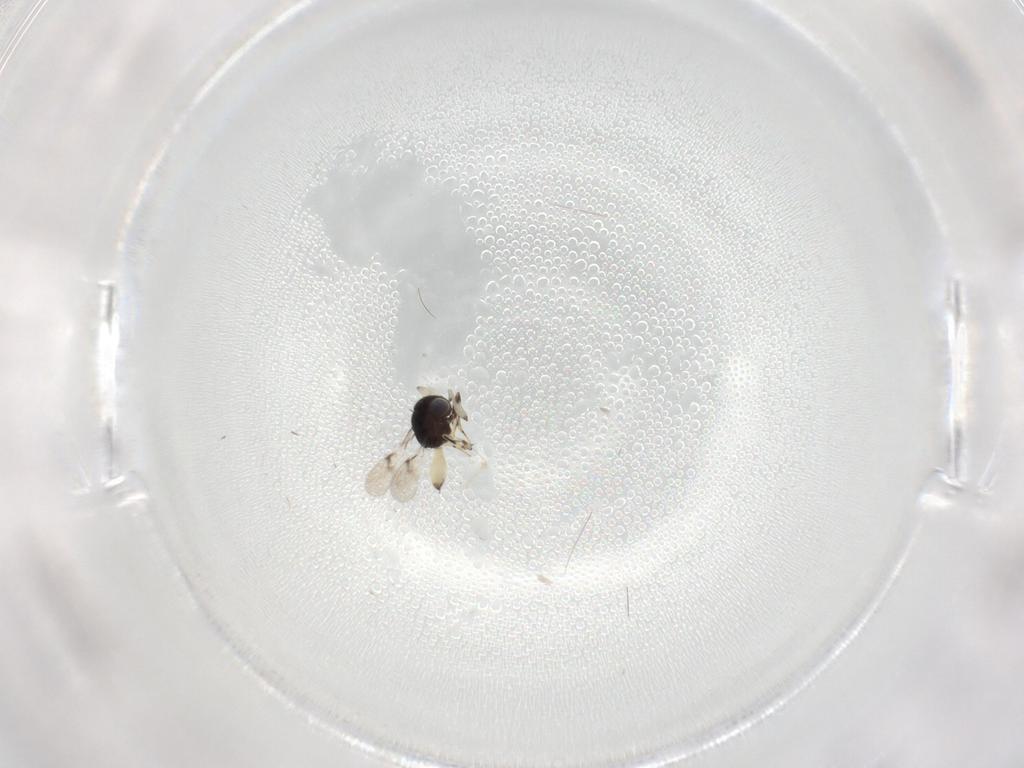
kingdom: Animalia
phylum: Arthropoda
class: Insecta
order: Hymenoptera
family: Scelionidae
